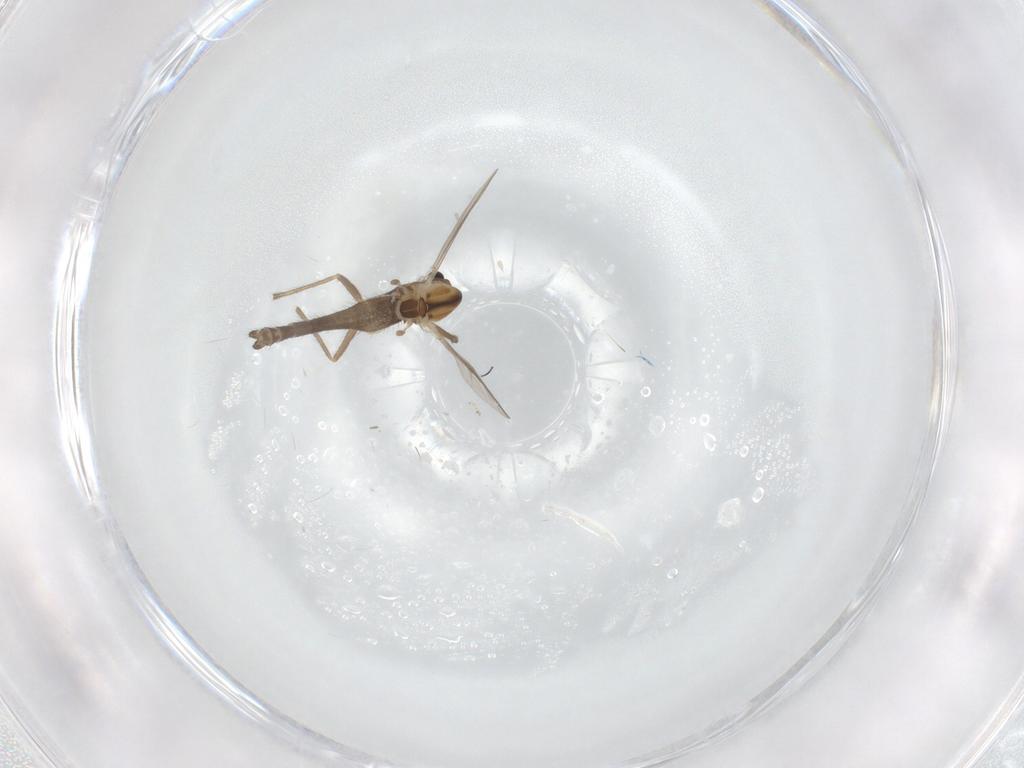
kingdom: Animalia
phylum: Arthropoda
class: Insecta
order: Diptera
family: Chironomidae
